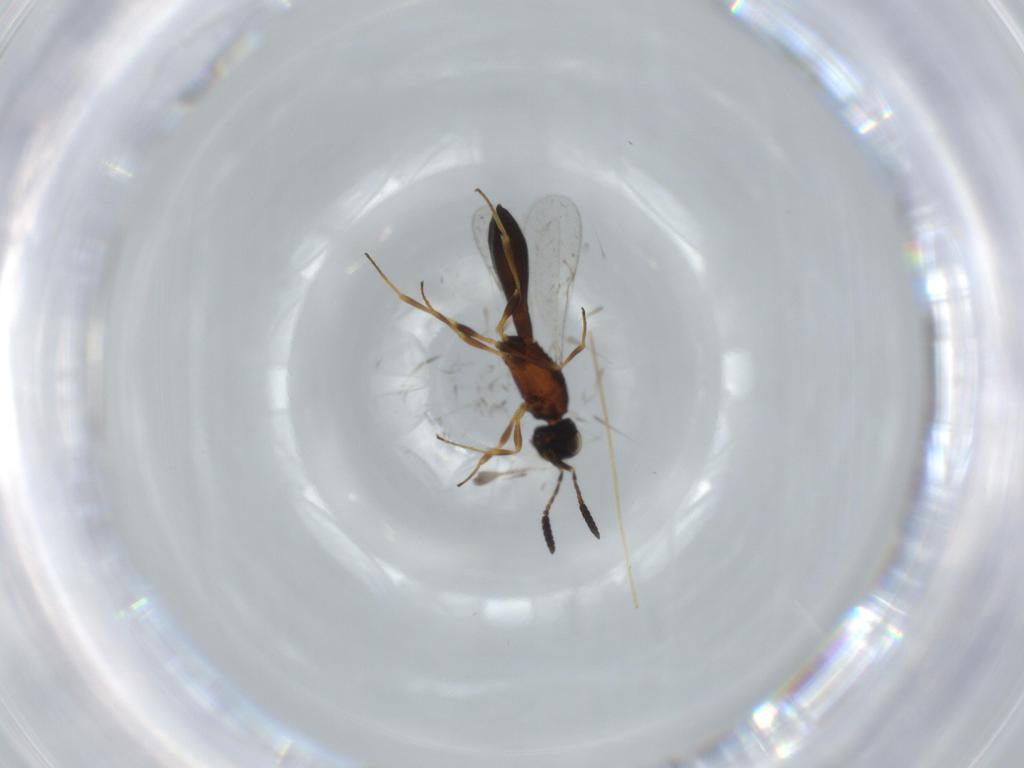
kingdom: Animalia
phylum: Arthropoda
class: Insecta
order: Hymenoptera
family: Scelionidae
